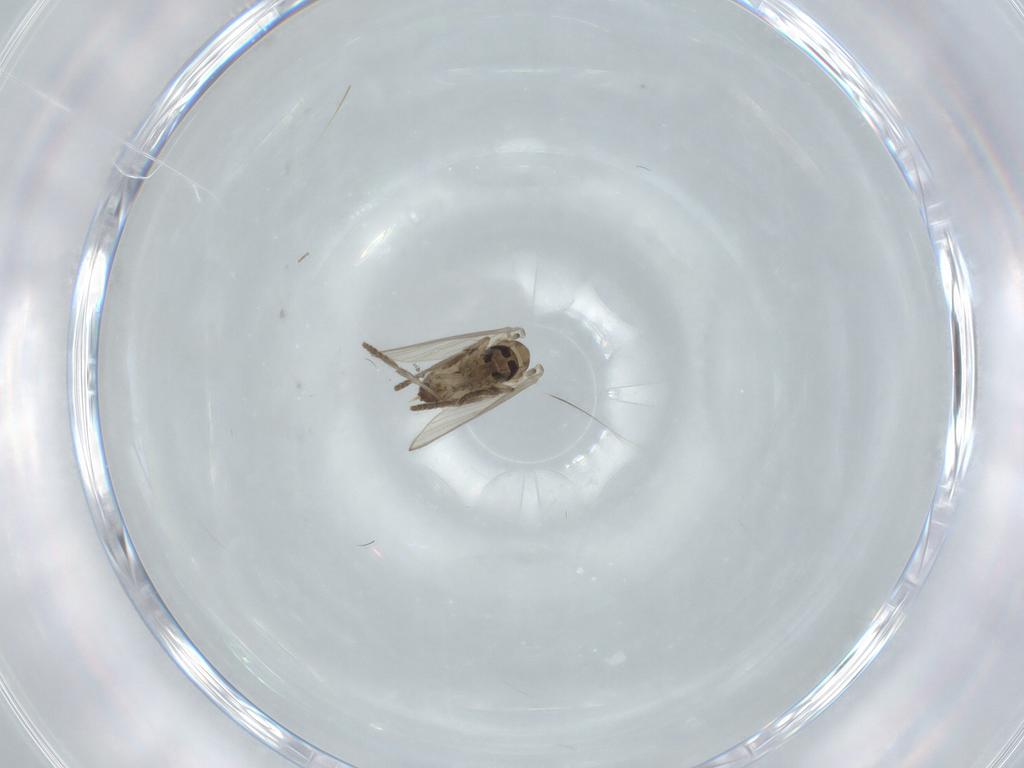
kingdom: Animalia
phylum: Arthropoda
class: Insecta
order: Diptera
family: Psychodidae
